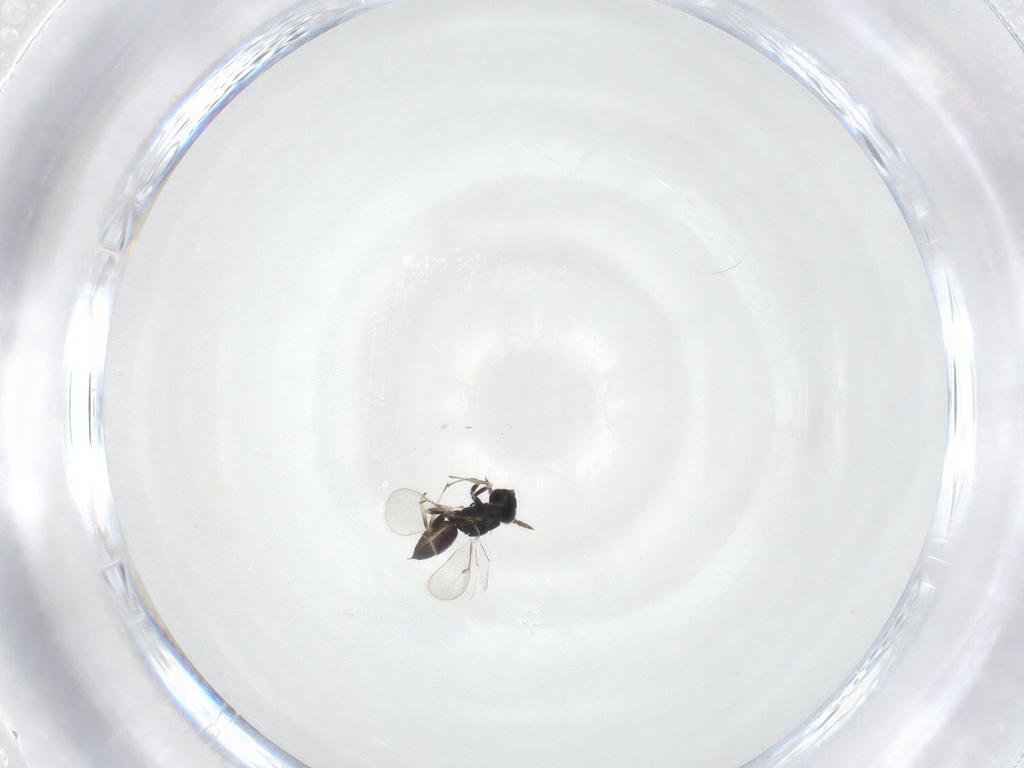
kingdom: Animalia
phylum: Arthropoda
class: Insecta
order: Hymenoptera
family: Eulophidae
